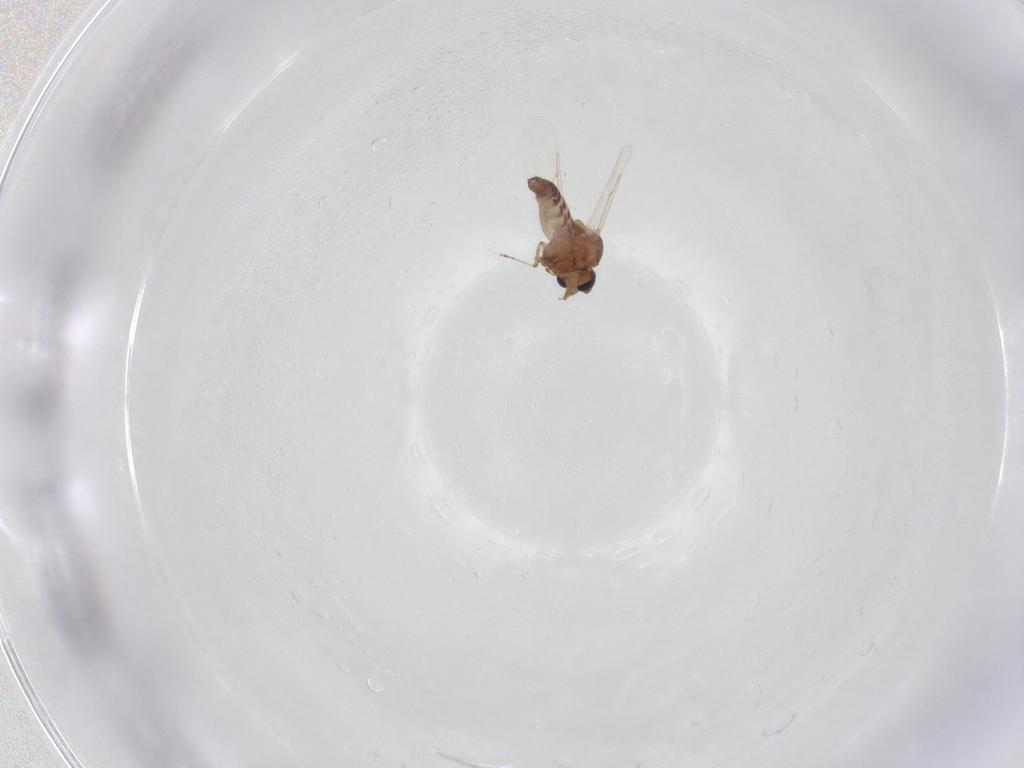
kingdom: Animalia
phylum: Arthropoda
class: Insecta
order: Diptera
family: Ceratopogonidae
